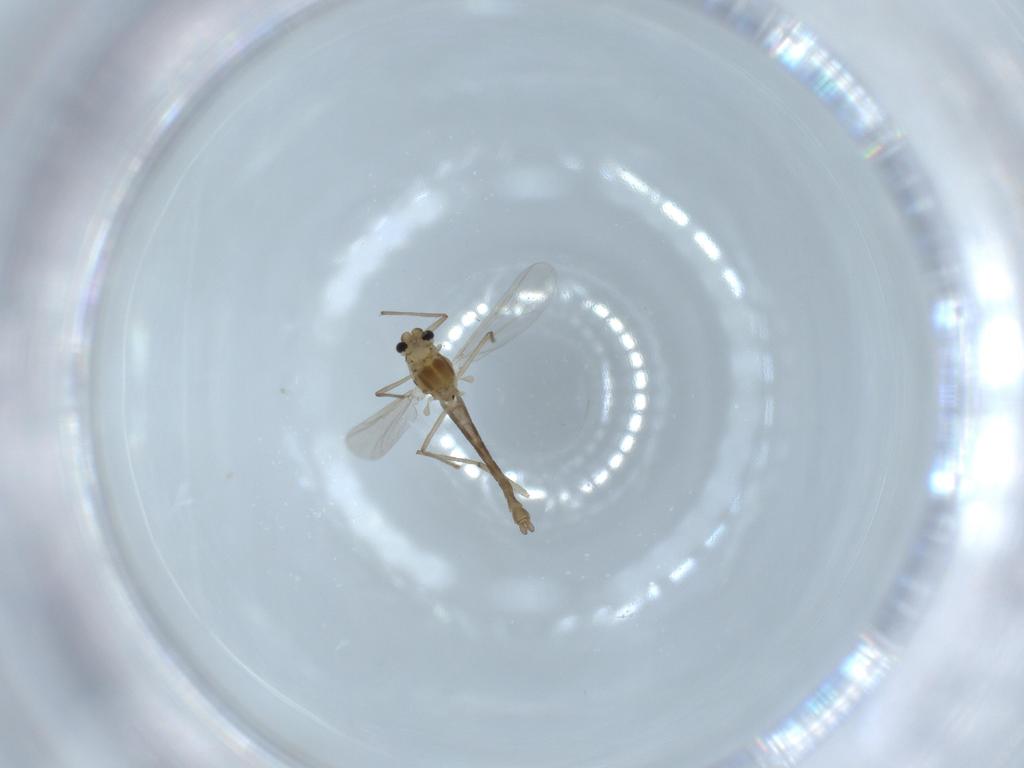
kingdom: Animalia
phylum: Arthropoda
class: Insecta
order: Diptera
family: Chironomidae
